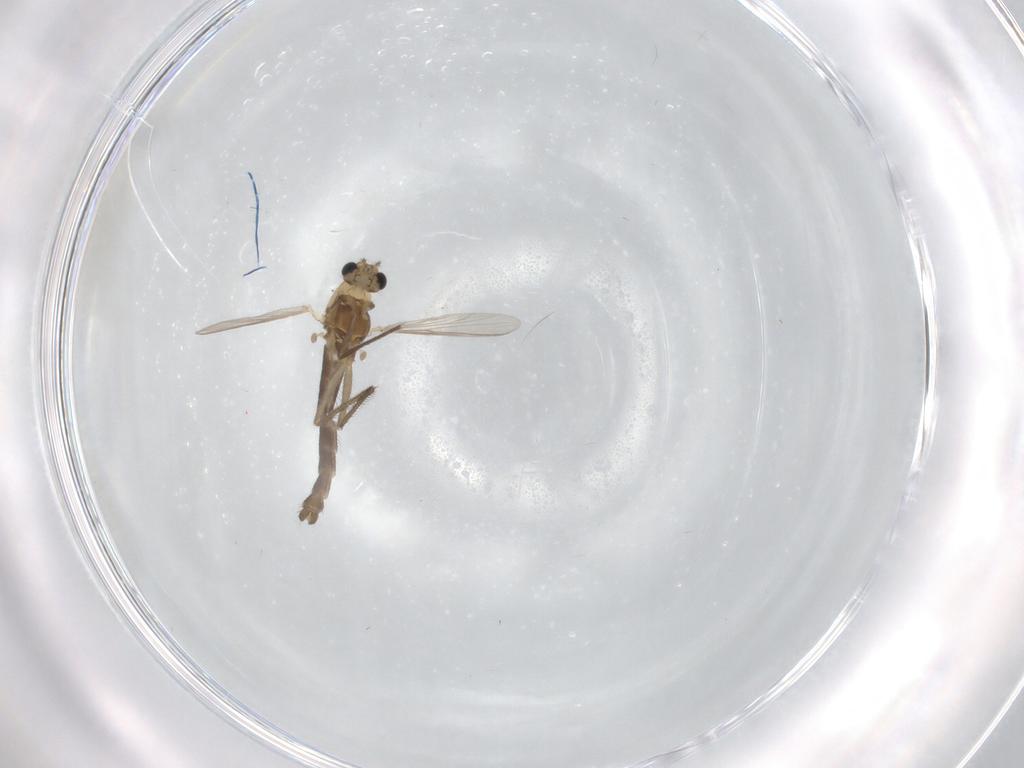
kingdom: Animalia
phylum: Arthropoda
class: Insecta
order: Diptera
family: Chironomidae
